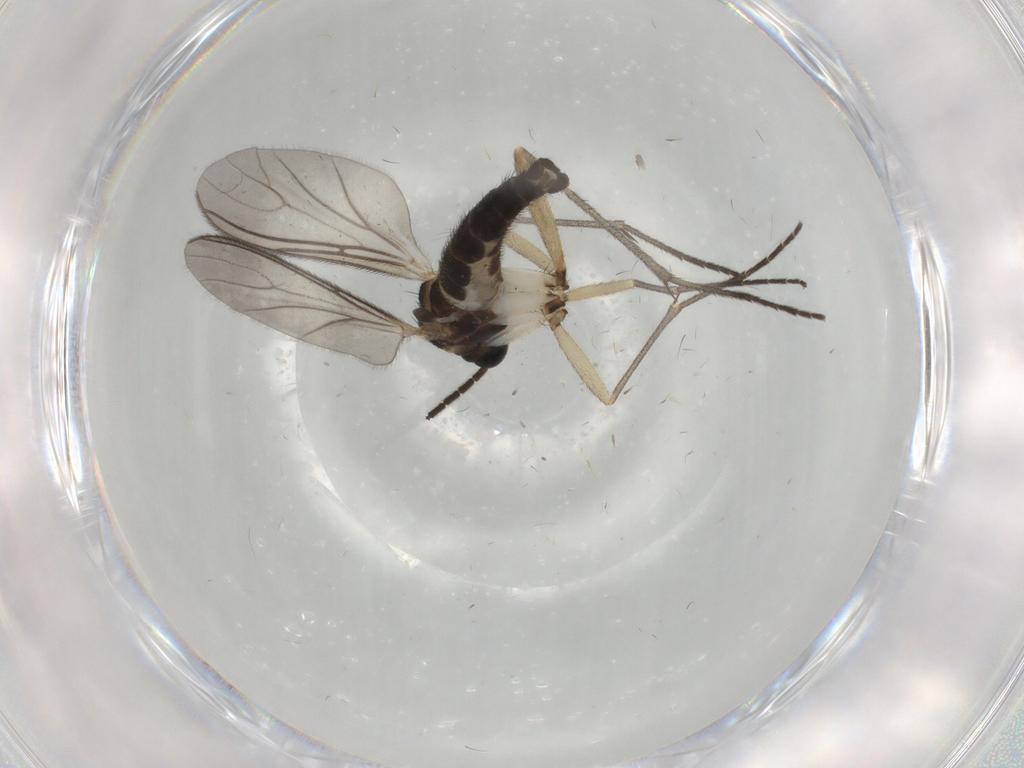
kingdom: Animalia
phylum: Arthropoda
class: Insecta
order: Diptera
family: Sciaridae
